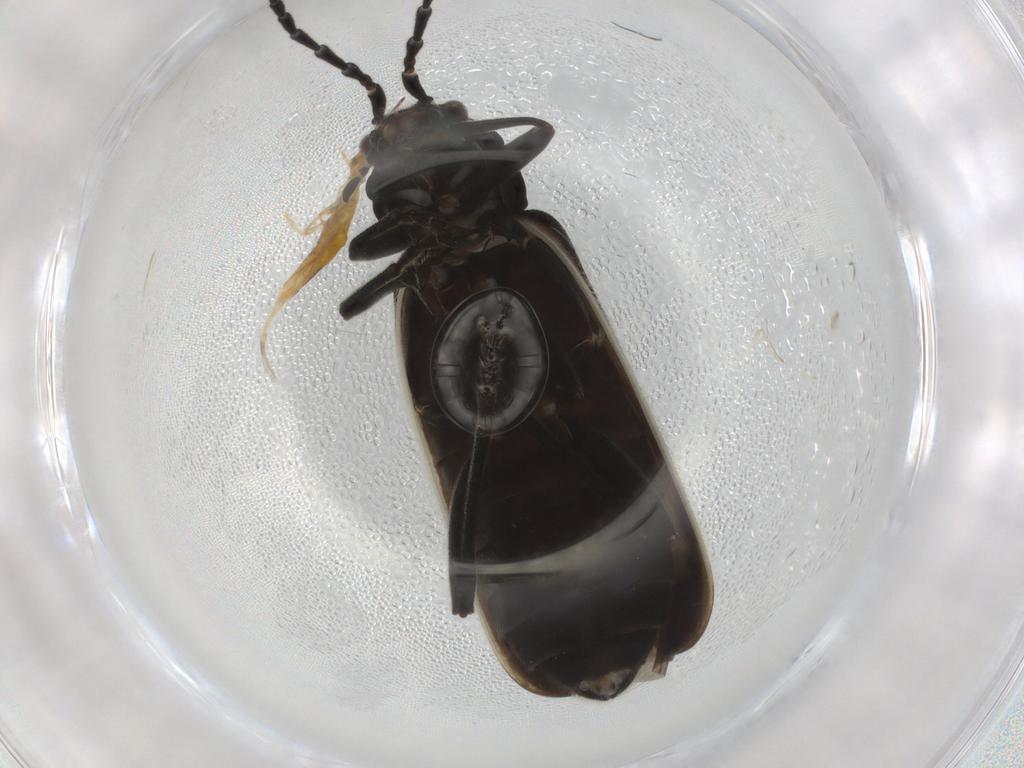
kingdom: Animalia
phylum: Arthropoda
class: Insecta
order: Coleoptera
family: Cantharidae
